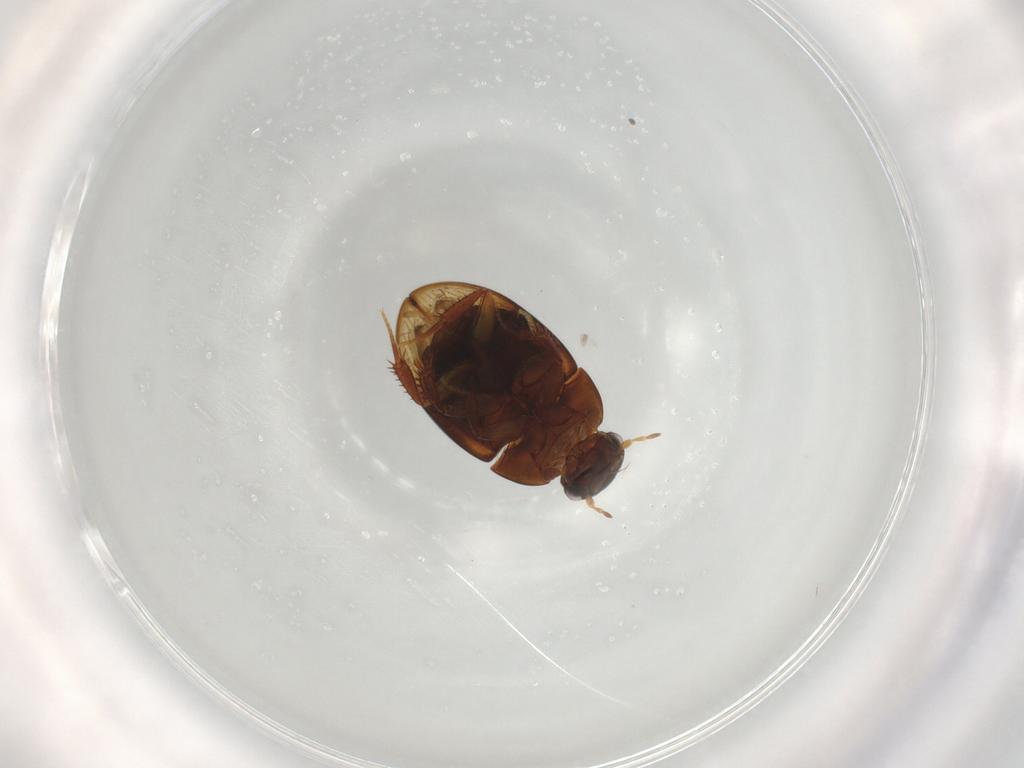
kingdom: Animalia
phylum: Arthropoda
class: Insecta
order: Coleoptera
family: Hydrophilidae
